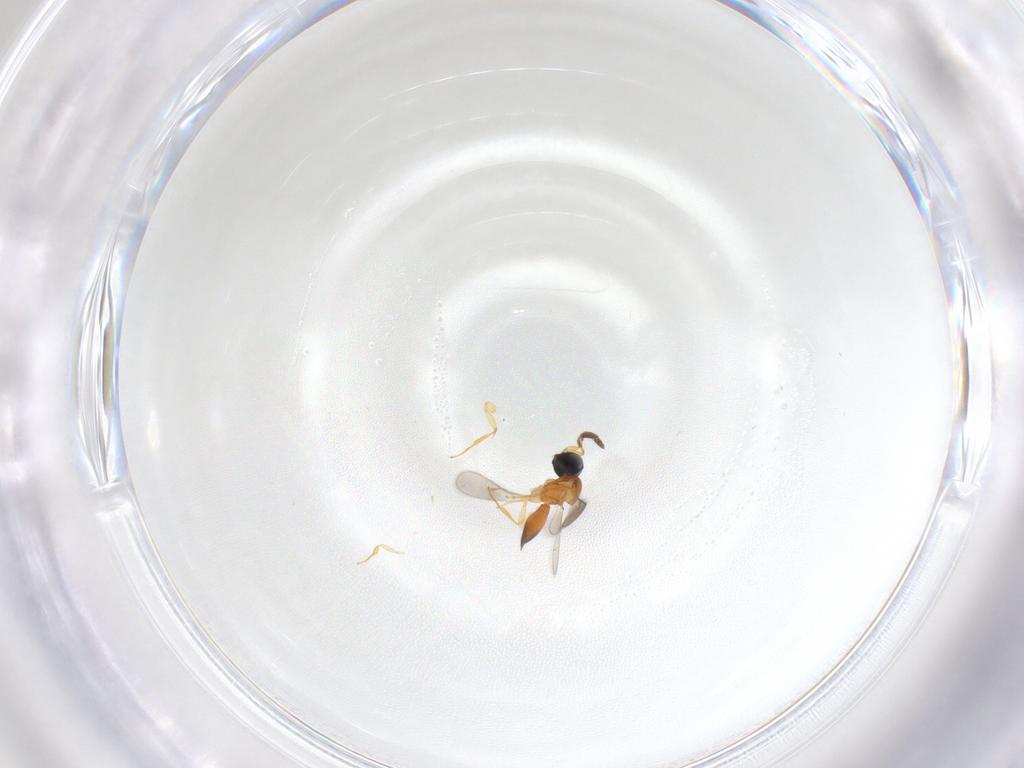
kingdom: Animalia
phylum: Arthropoda
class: Insecta
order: Hymenoptera
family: Scelionidae
